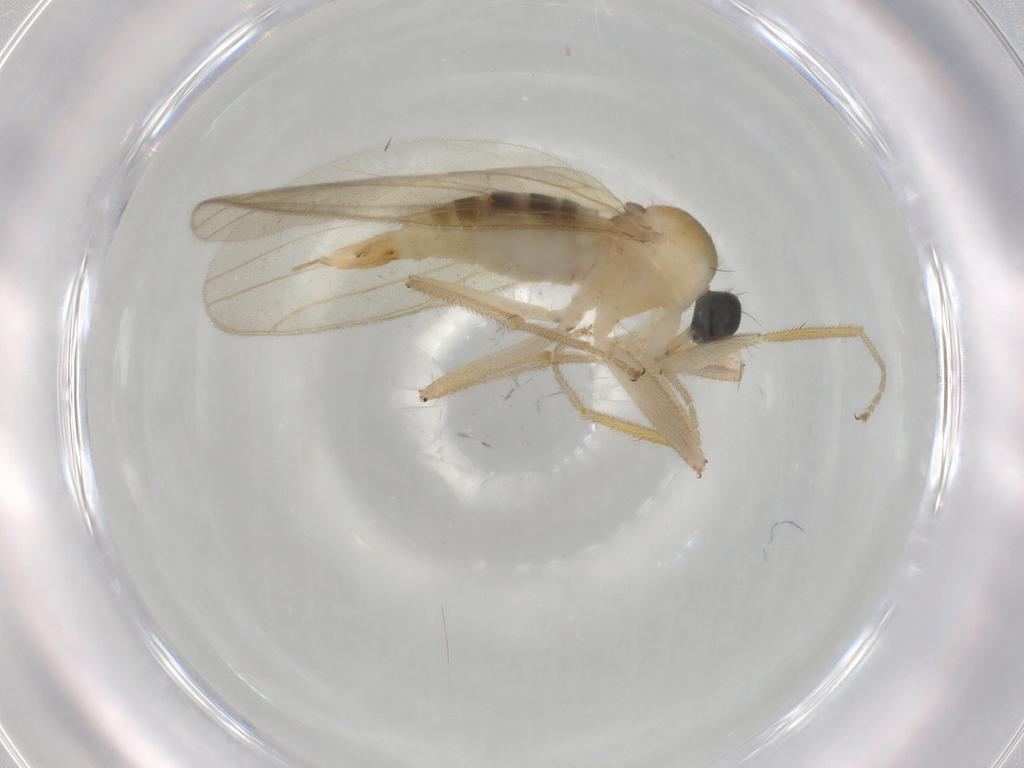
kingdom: Animalia
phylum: Arthropoda
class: Insecta
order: Diptera
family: Hybotidae
